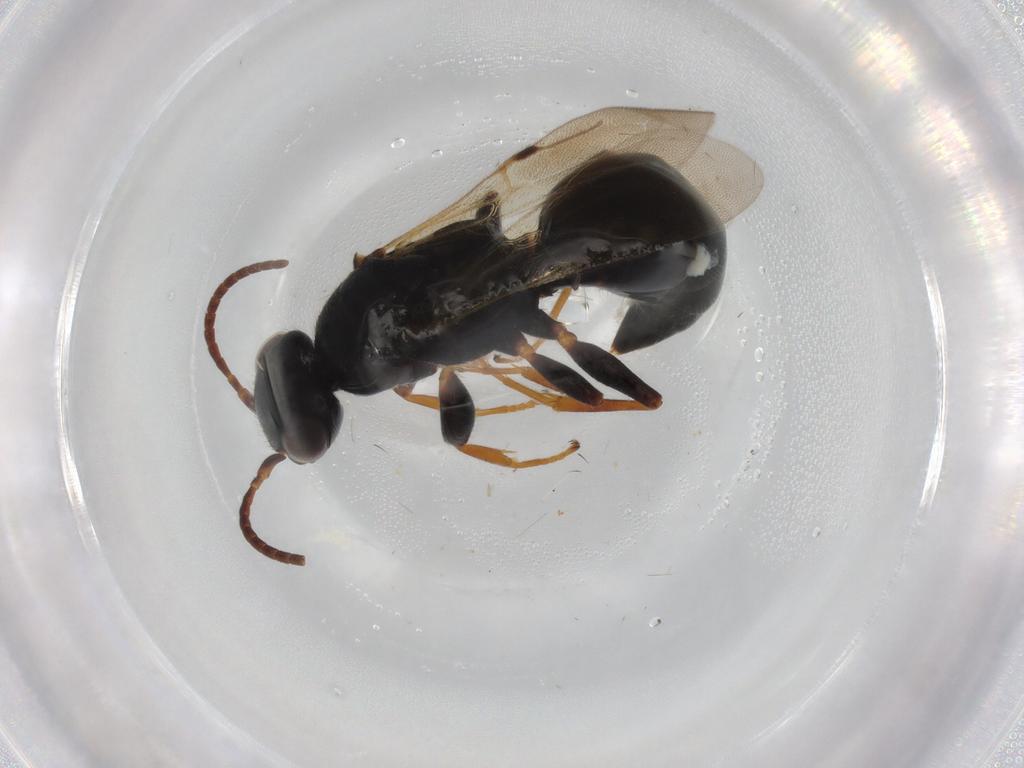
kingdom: Animalia
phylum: Arthropoda
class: Insecta
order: Hymenoptera
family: Bethylidae
